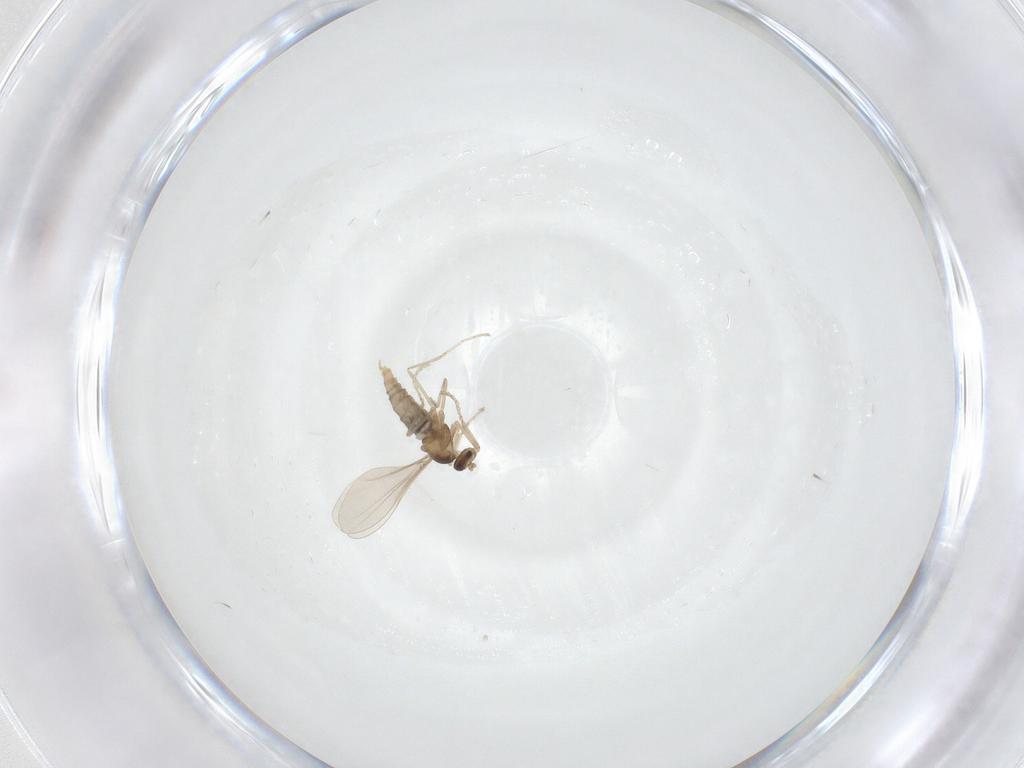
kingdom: Animalia
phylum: Arthropoda
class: Insecta
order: Diptera
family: Cecidomyiidae
